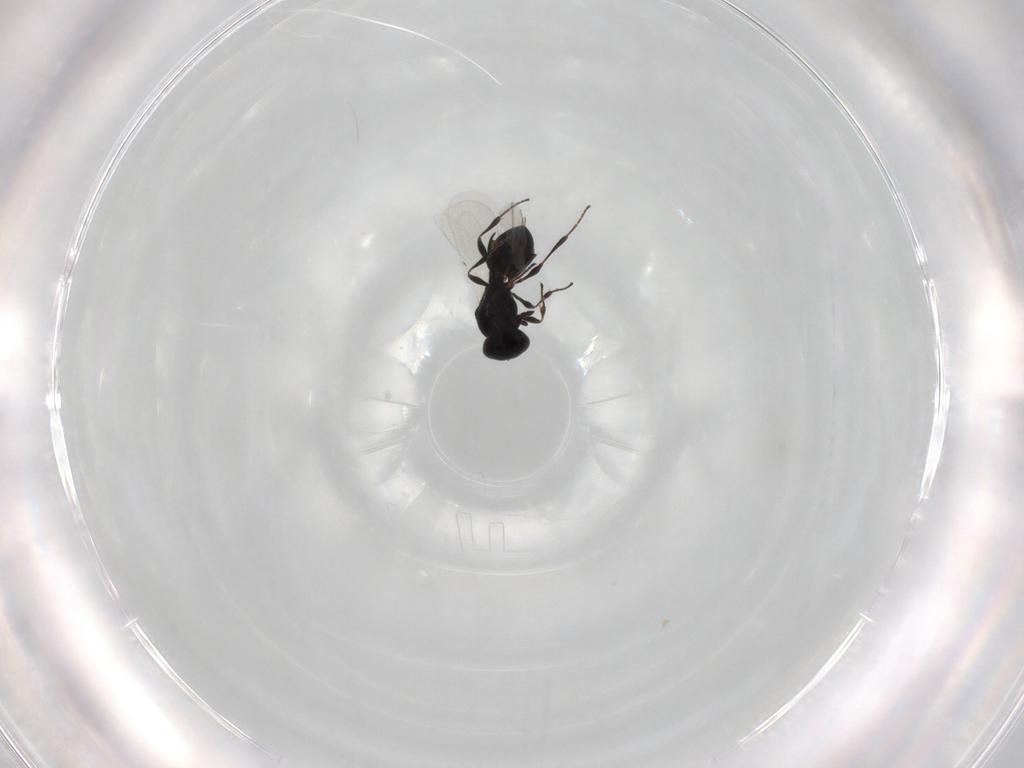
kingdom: Animalia
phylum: Arthropoda
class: Insecta
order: Hymenoptera
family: Platygastridae
